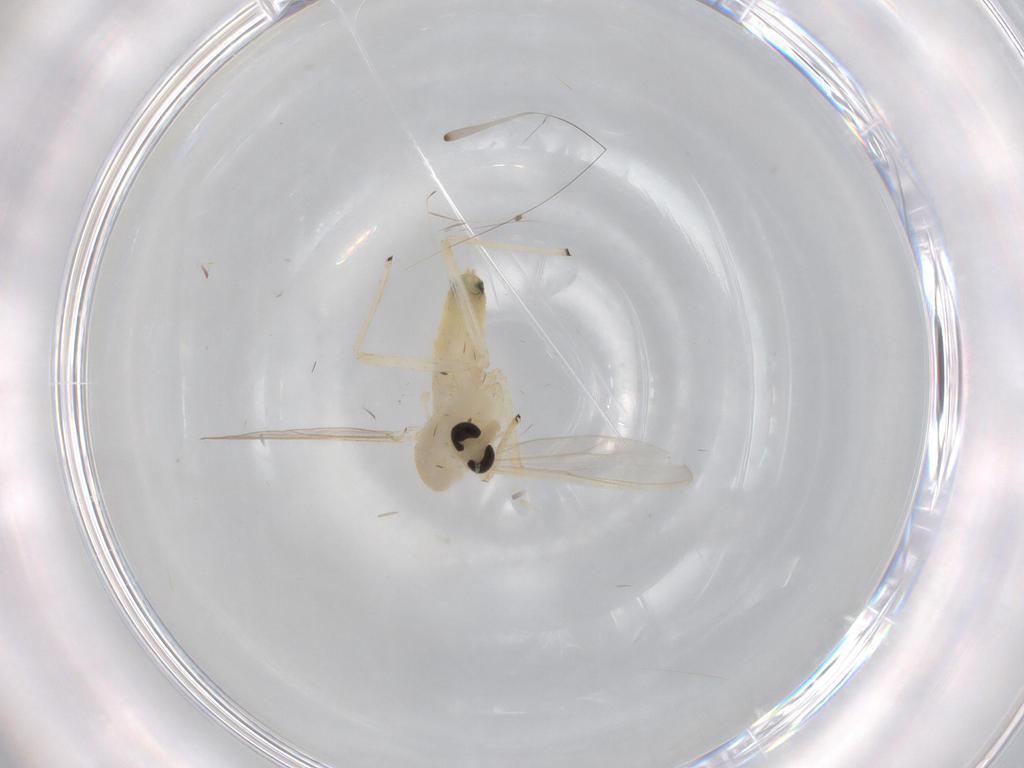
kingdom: Animalia
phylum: Arthropoda
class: Insecta
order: Diptera
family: Chironomidae
